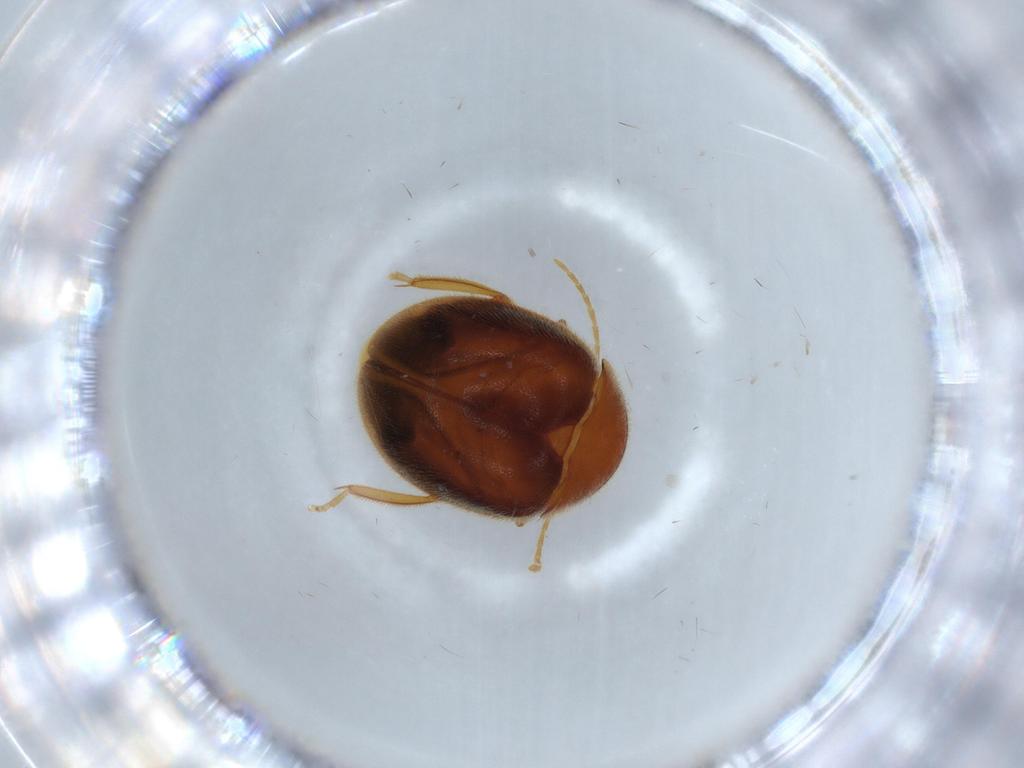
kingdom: Animalia
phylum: Arthropoda
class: Insecta
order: Coleoptera
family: Scirtidae
